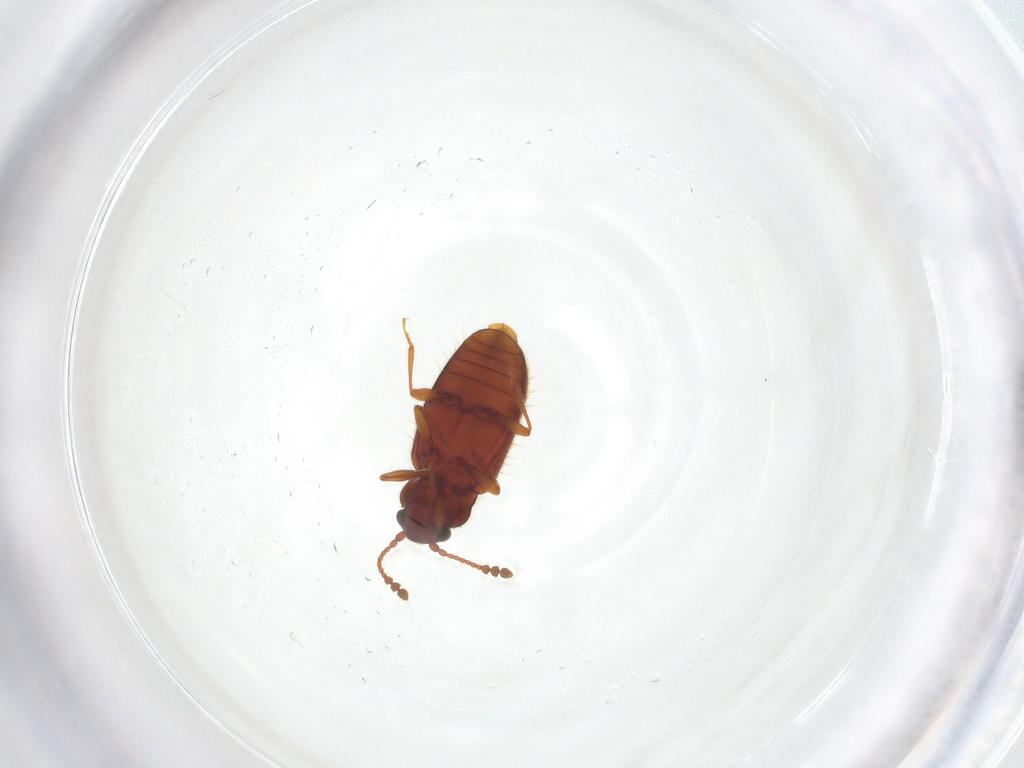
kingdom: Animalia
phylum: Arthropoda
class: Insecta
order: Coleoptera
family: Cryptophagidae
